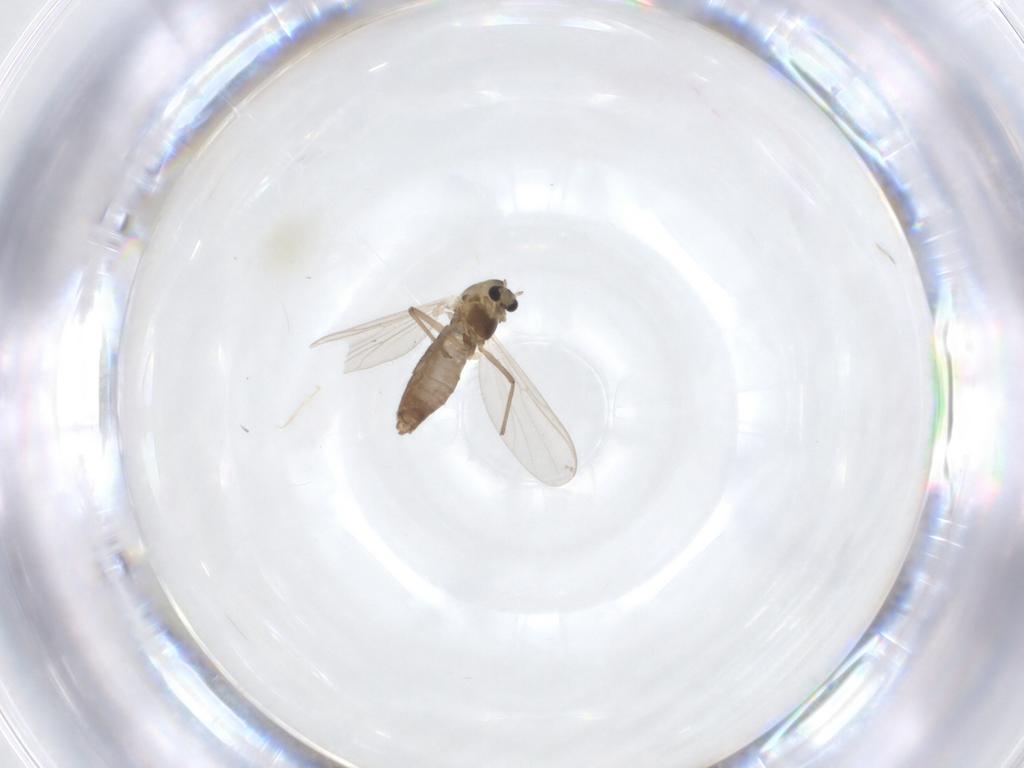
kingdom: Animalia
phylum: Arthropoda
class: Insecta
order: Diptera
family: Chironomidae
